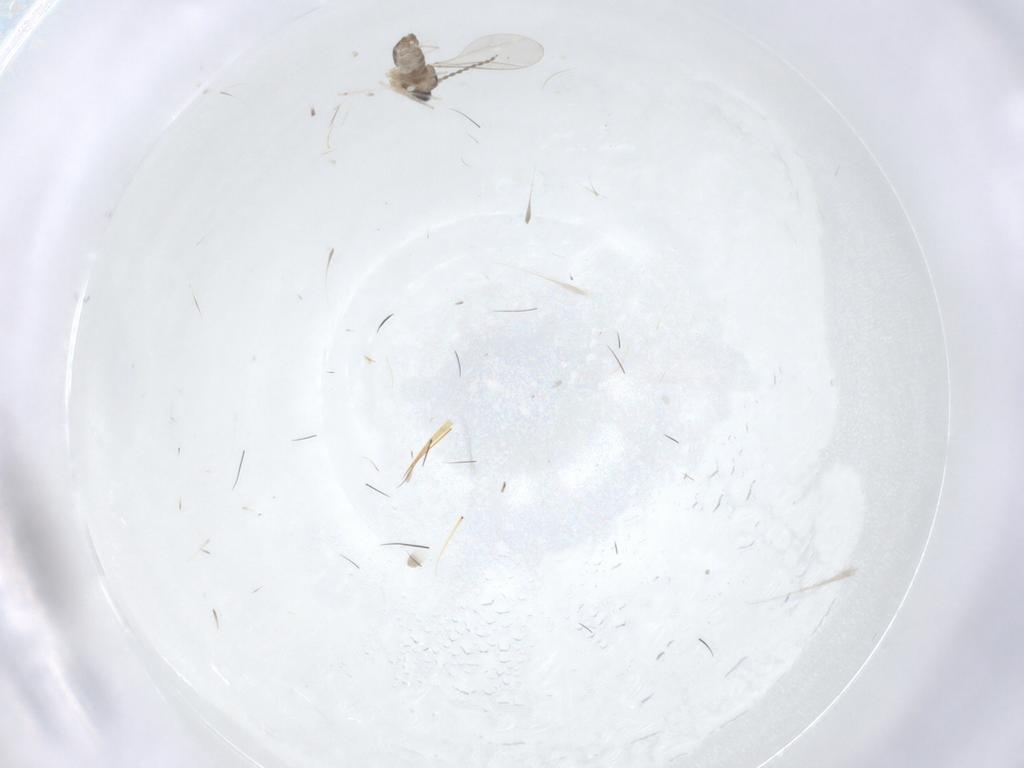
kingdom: Animalia
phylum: Arthropoda
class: Insecta
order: Diptera
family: Cecidomyiidae
